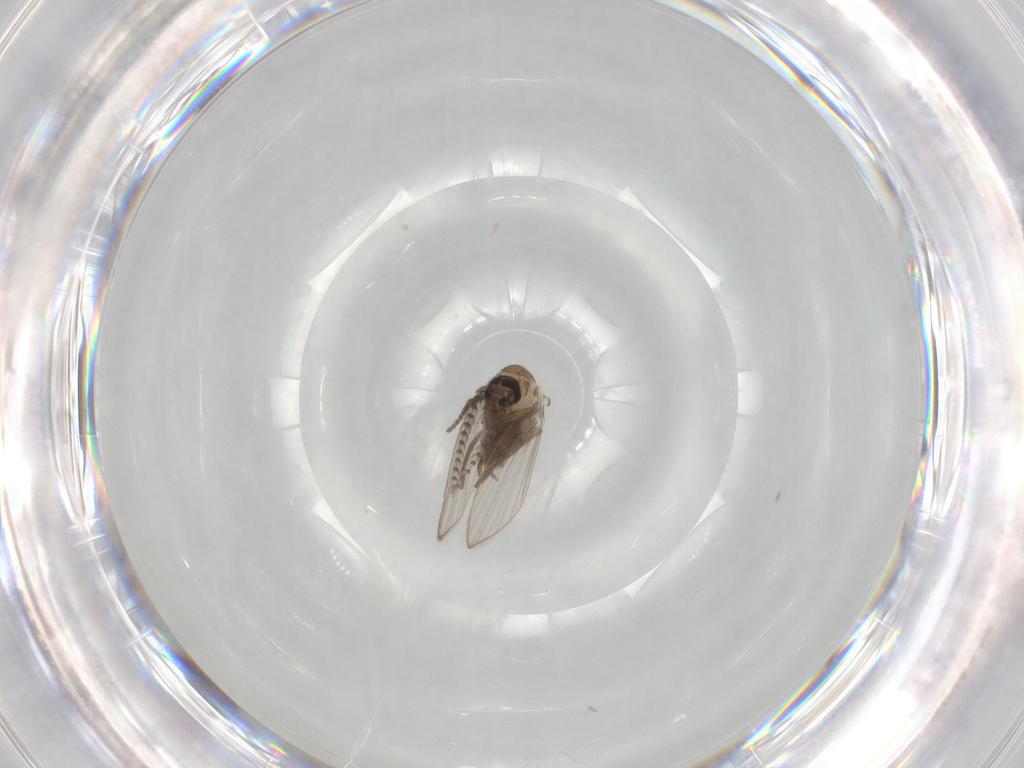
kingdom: Animalia
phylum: Arthropoda
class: Insecta
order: Diptera
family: Psychodidae
